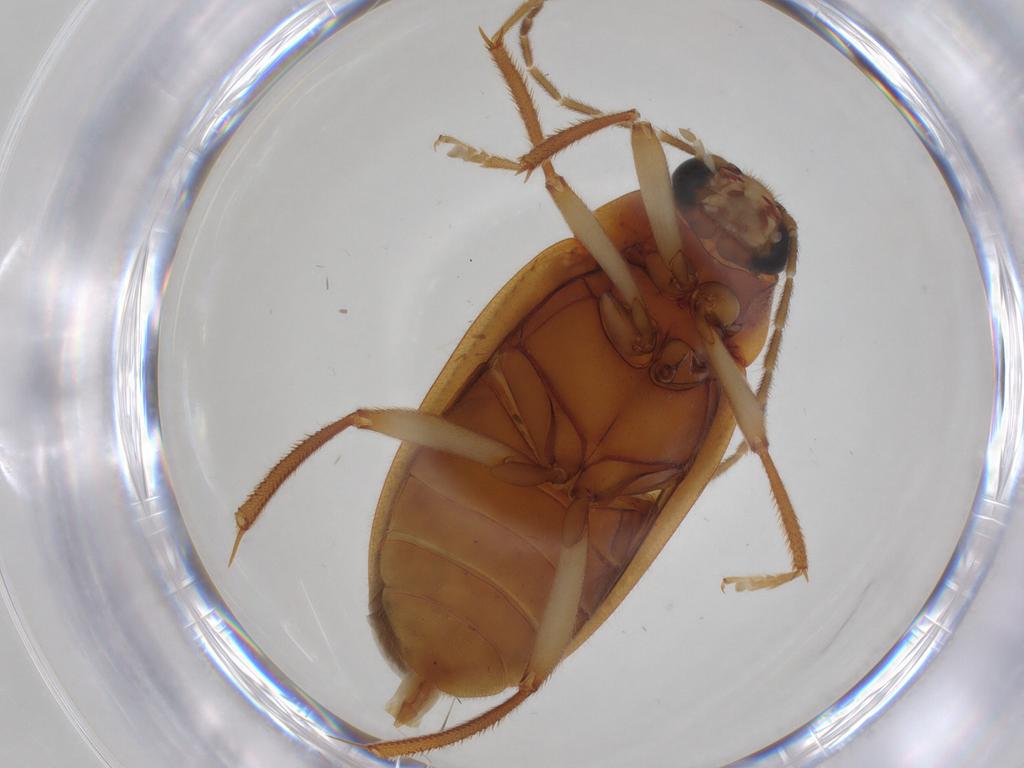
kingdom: Animalia
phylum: Arthropoda
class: Insecta
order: Coleoptera
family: Ptilodactylidae
